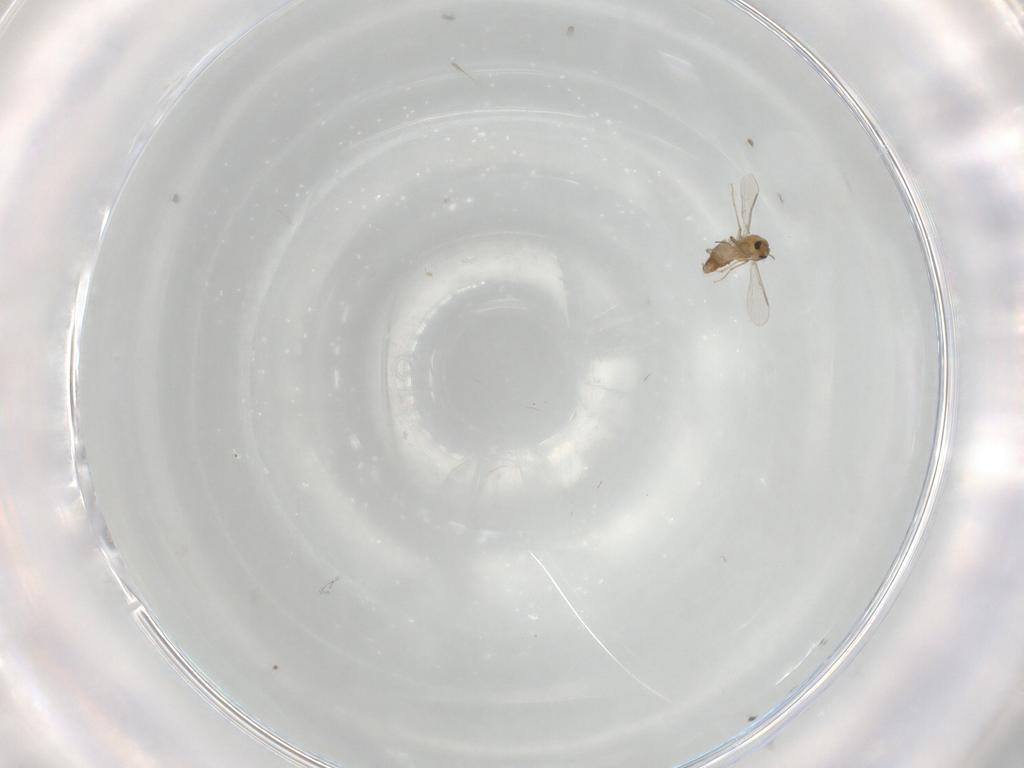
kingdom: Animalia
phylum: Arthropoda
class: Insecta
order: Diptera
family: Chironomidae
